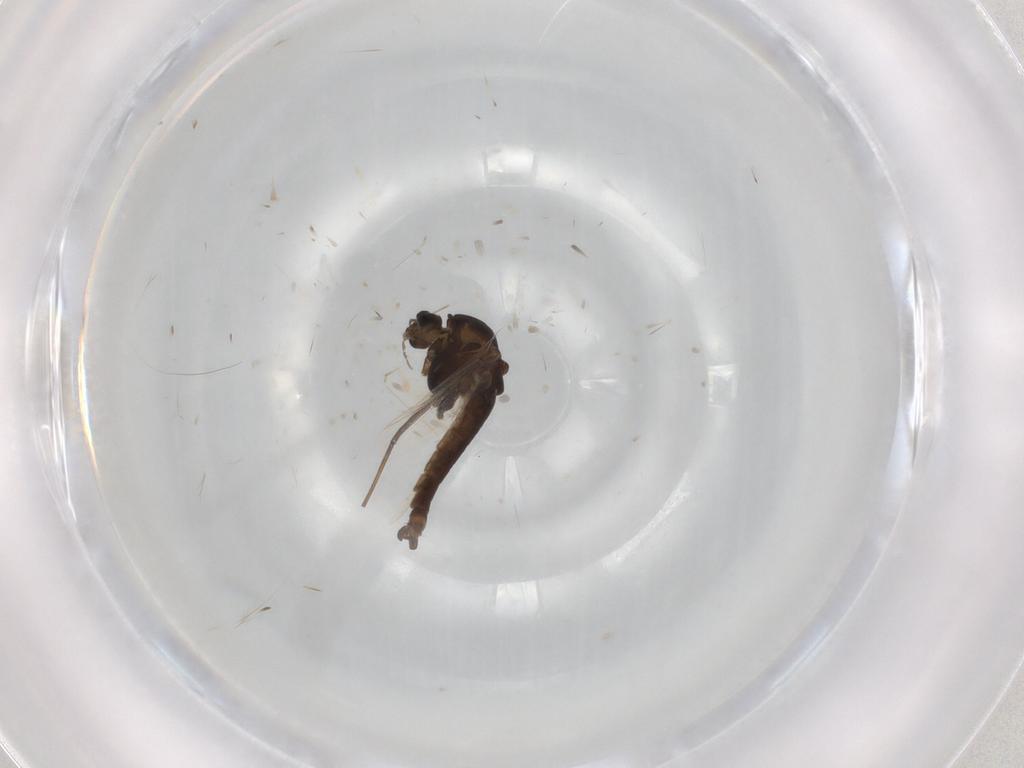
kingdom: Animalia
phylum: Arthropoda
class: Insecta
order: Diptera
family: Chironomidae
